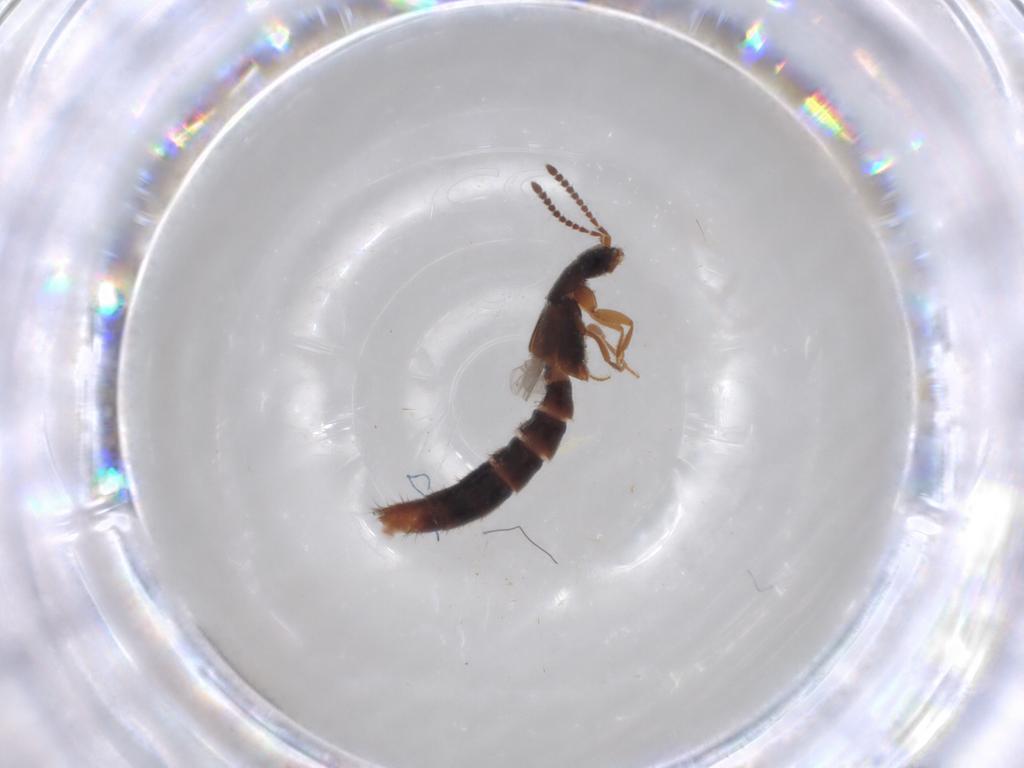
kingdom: Animalia
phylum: Arthropoda
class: Insecta
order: Coleoptera
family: Staphylinidae
